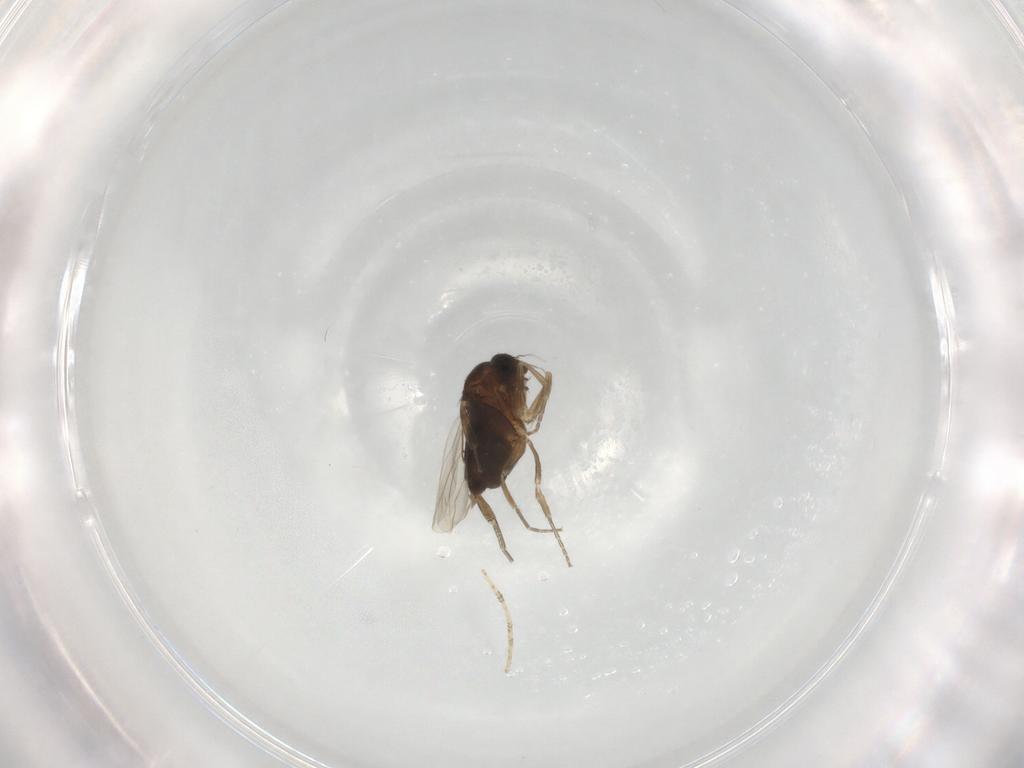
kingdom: Animalia
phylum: Arthropoda
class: Insecta
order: Diptera
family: Phoridae
